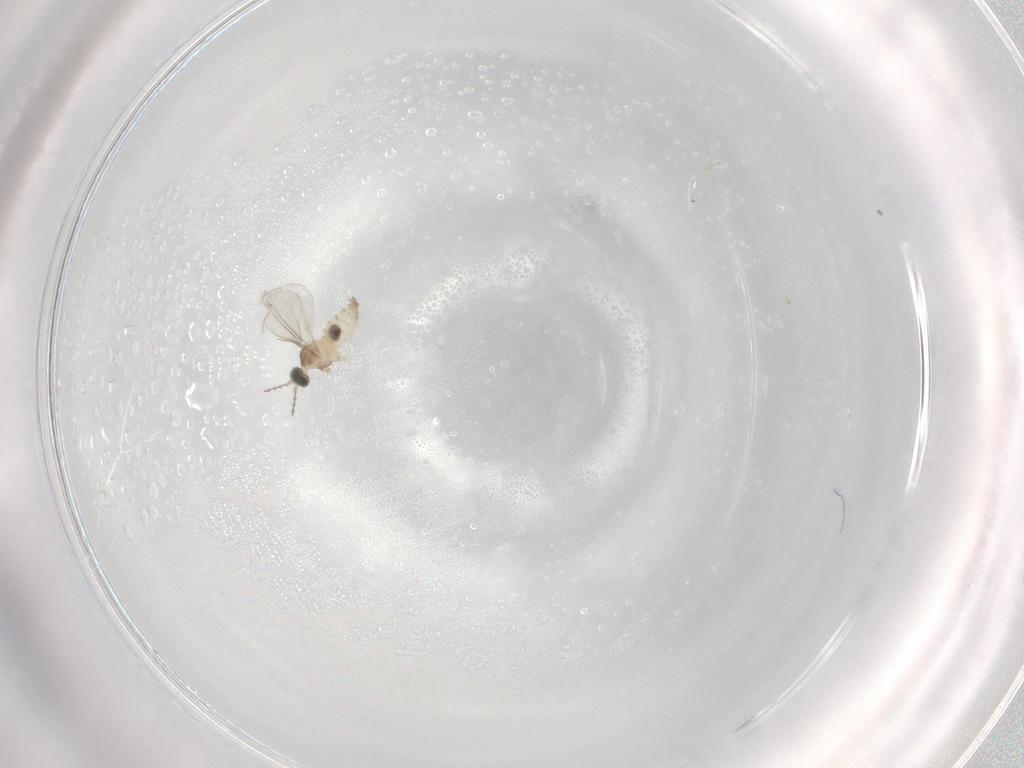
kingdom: Animalia
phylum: Arthropoda
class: Insecta
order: Diptera
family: Cecidomyiidae
